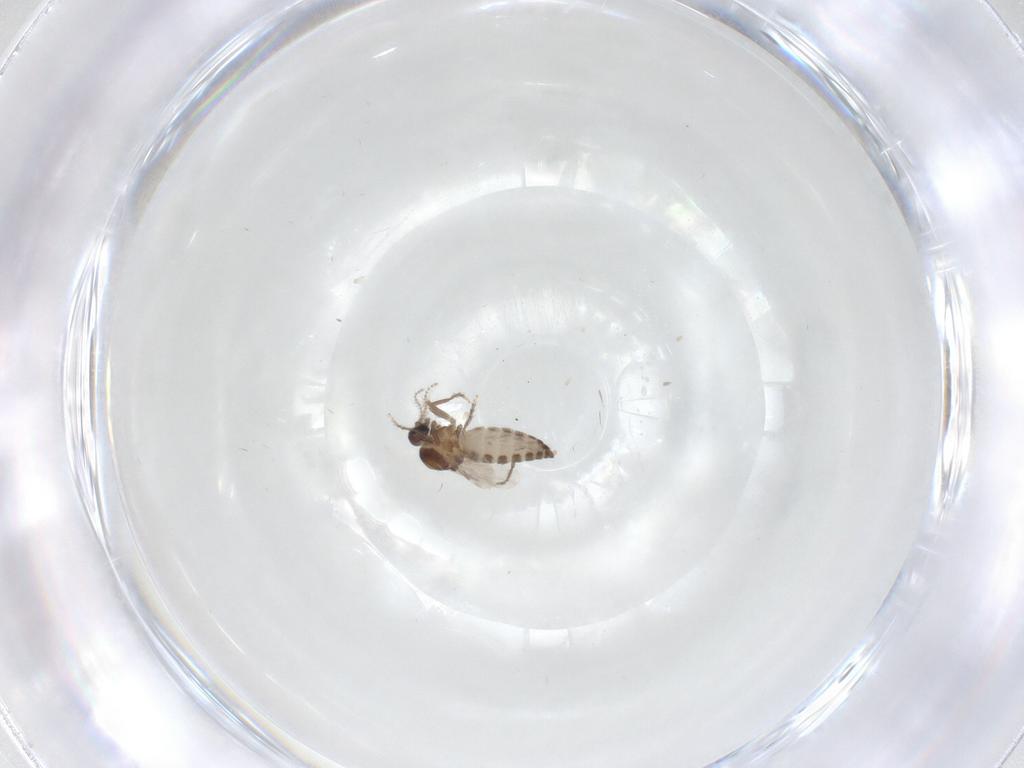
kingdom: Animalia
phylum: Arthropoda
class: Insecta
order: Diptera
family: Ceratopogonidae
